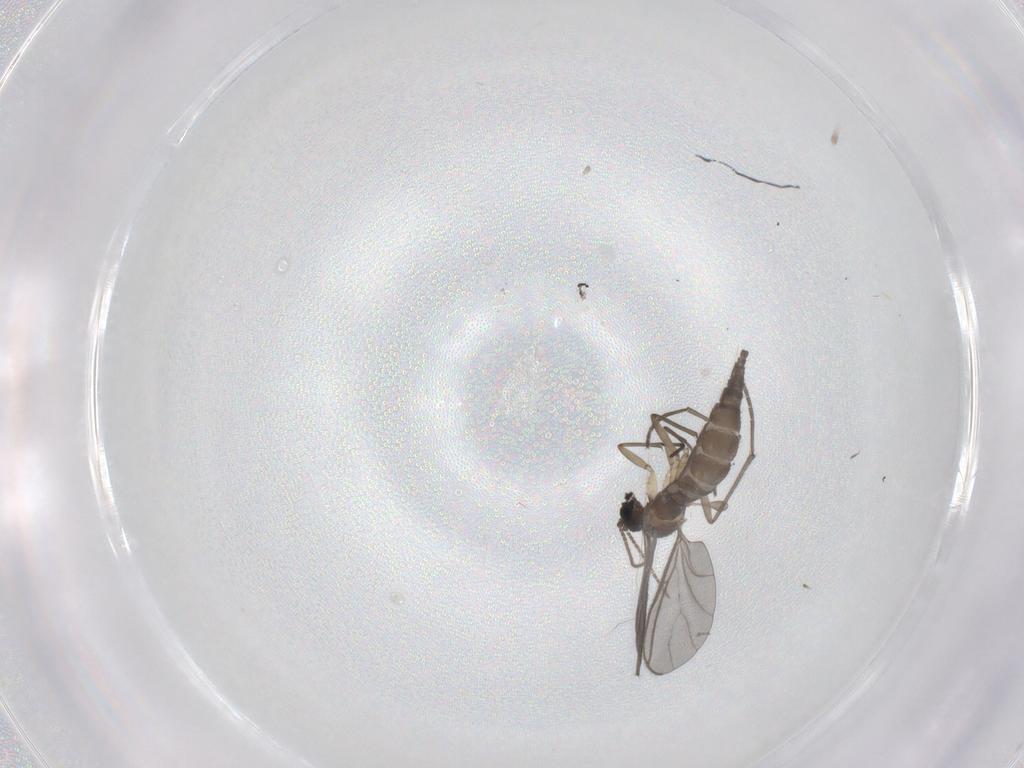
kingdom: Animalia
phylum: Arthropoda
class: Insecta
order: Diptera
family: Sciaridae
